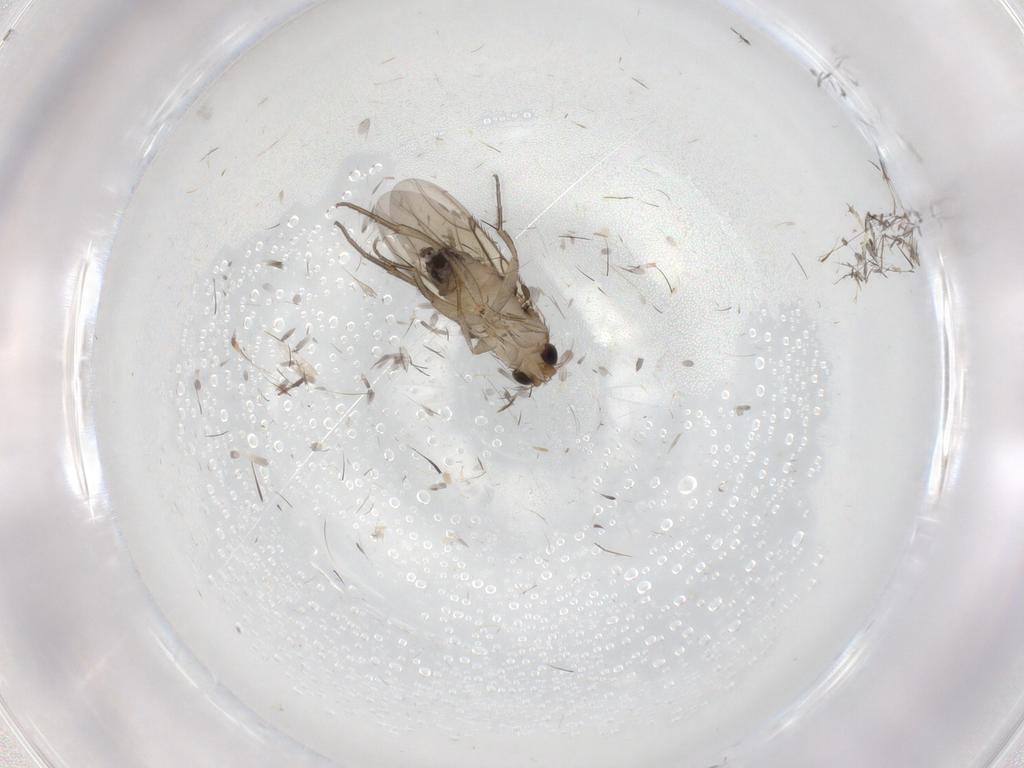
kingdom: Animalia
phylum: Arthropoda
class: Insecta
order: Diptera
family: Phoridae
